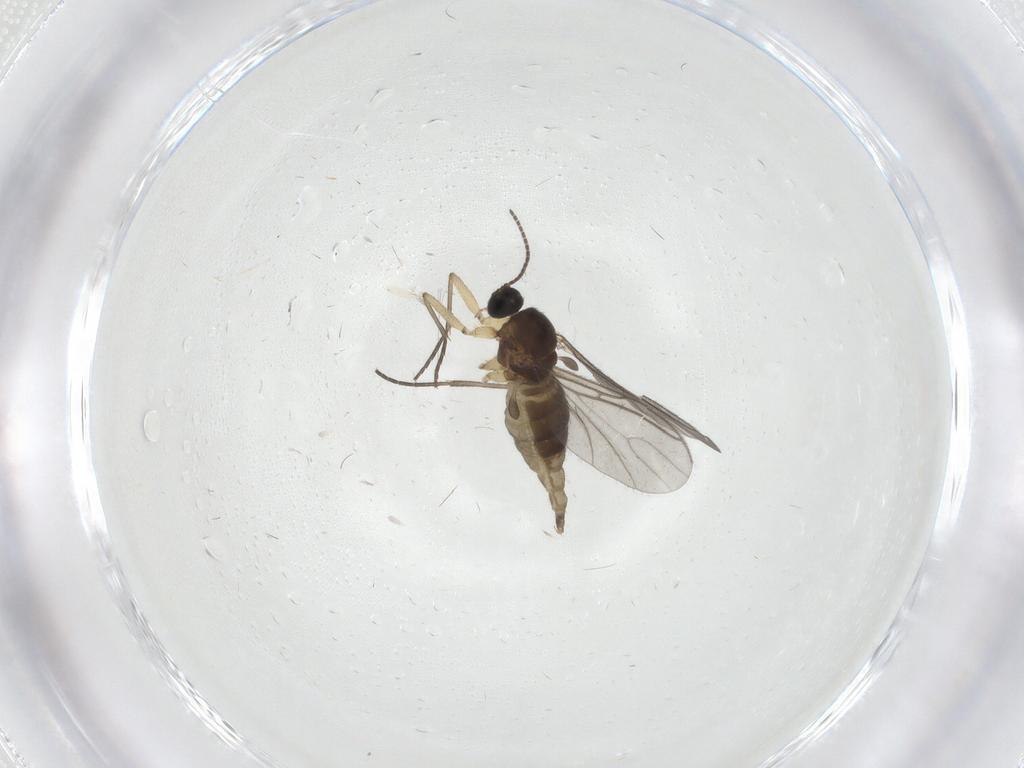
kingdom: Animalia
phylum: Arthropoda
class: Insecta
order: Diptera
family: Sciaridae
